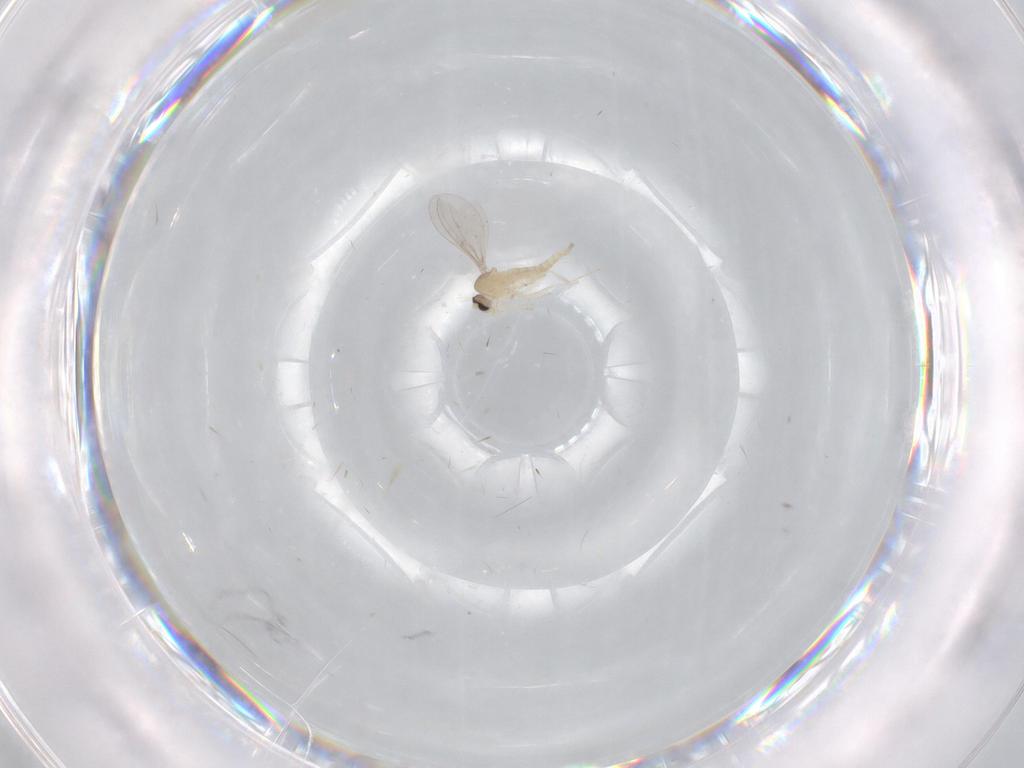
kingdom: Animalia
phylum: Arthropoda
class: Insecta
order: Diptera
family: Cecidomyiidae
